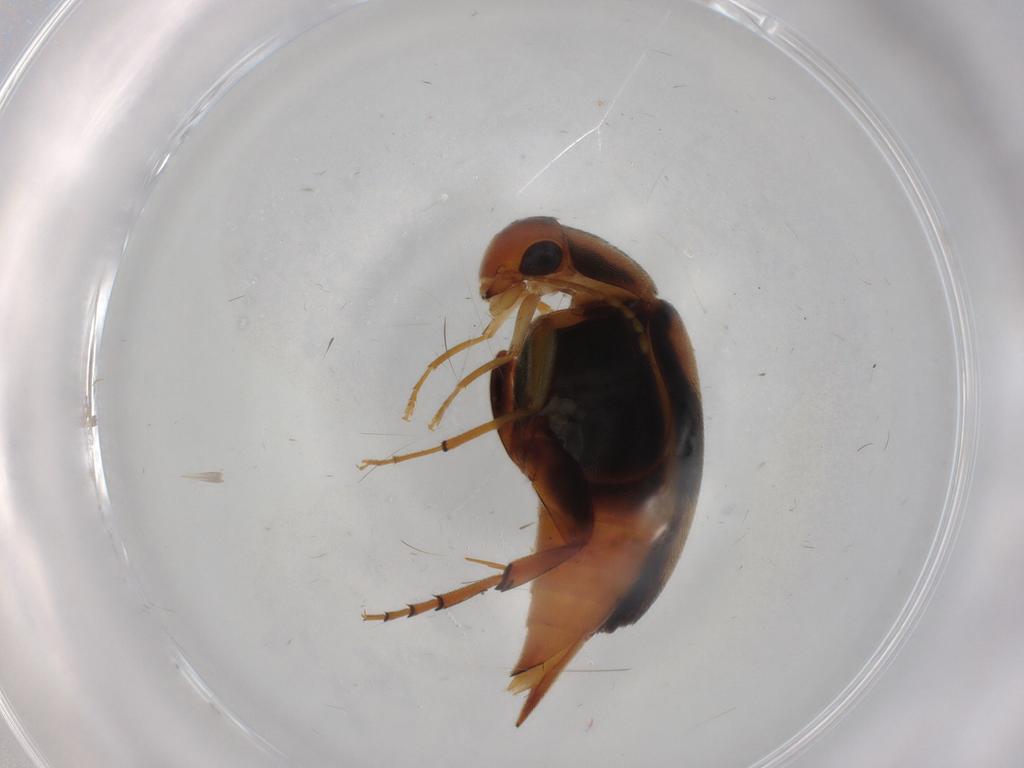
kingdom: Animalia
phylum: Arthropoda
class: Insecta
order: Coleoptera
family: Mordellidae
